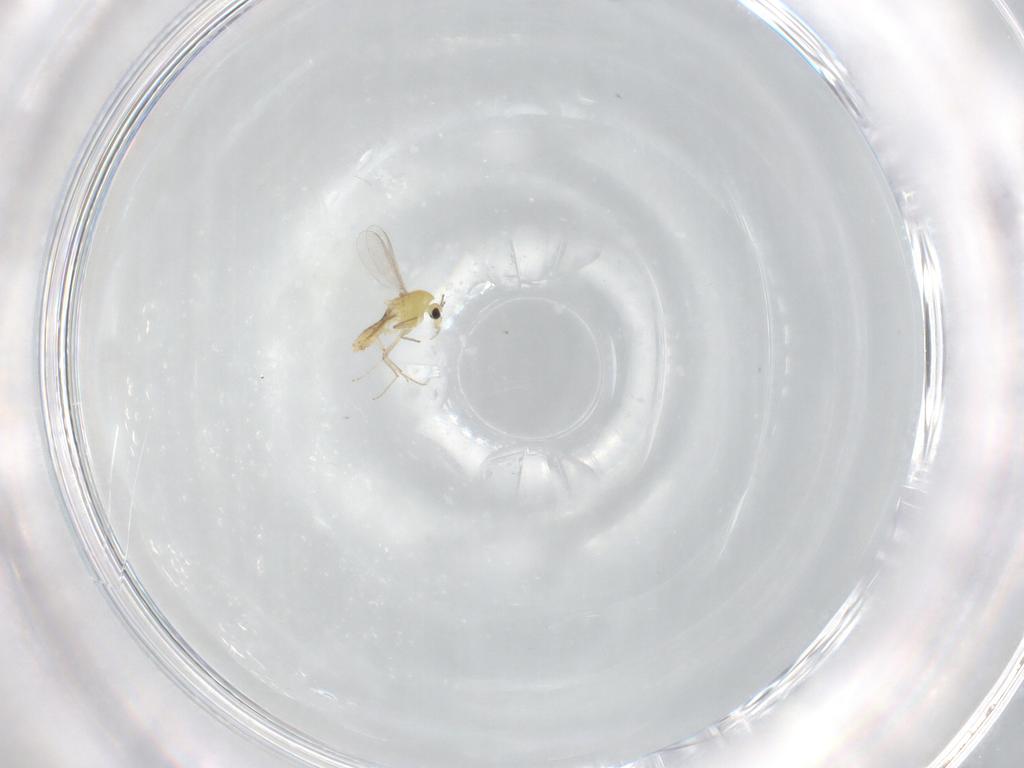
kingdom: Animalia
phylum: Arthropoda
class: Insecta
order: Diptera
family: Chironomidae
